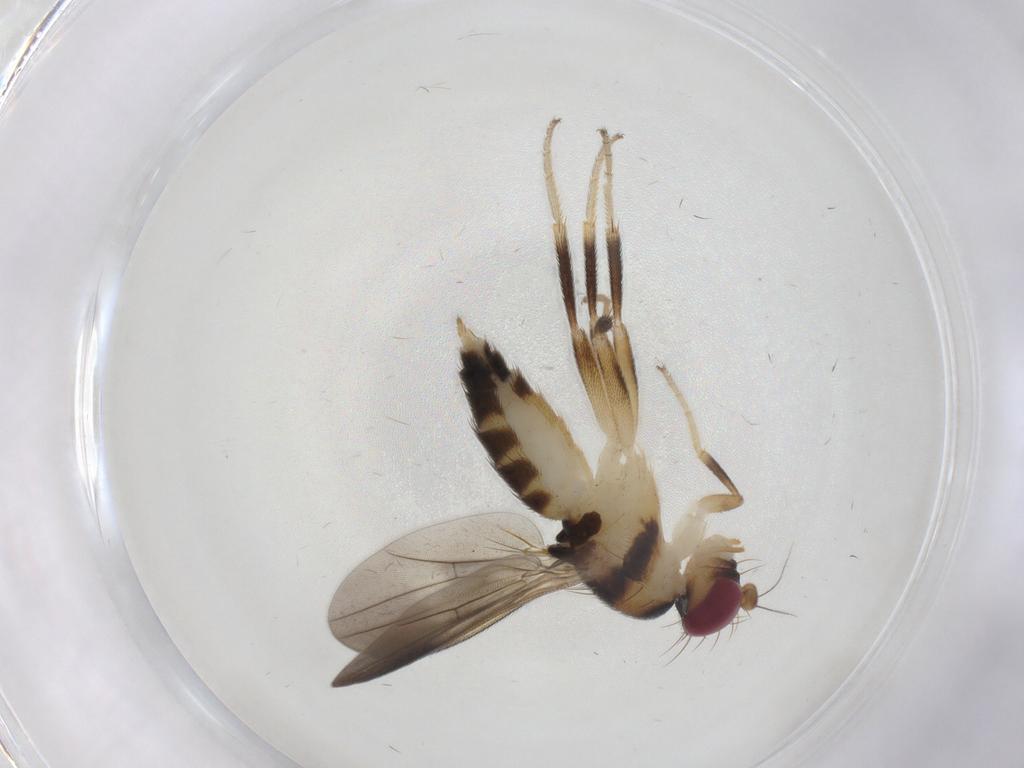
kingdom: Animalia
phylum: Arthropoda
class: Insecta
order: Diptera
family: Clusiidae
